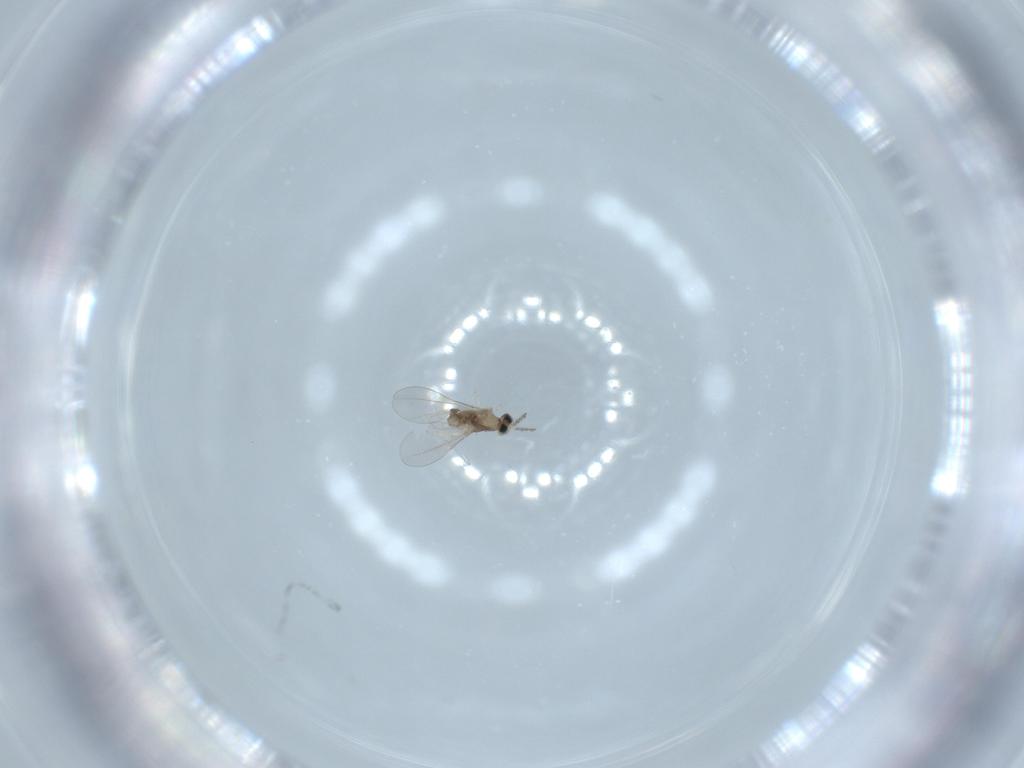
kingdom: Animalia
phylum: Arthropoda
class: Insecta
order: Diptera
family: Cecidomyiidae
